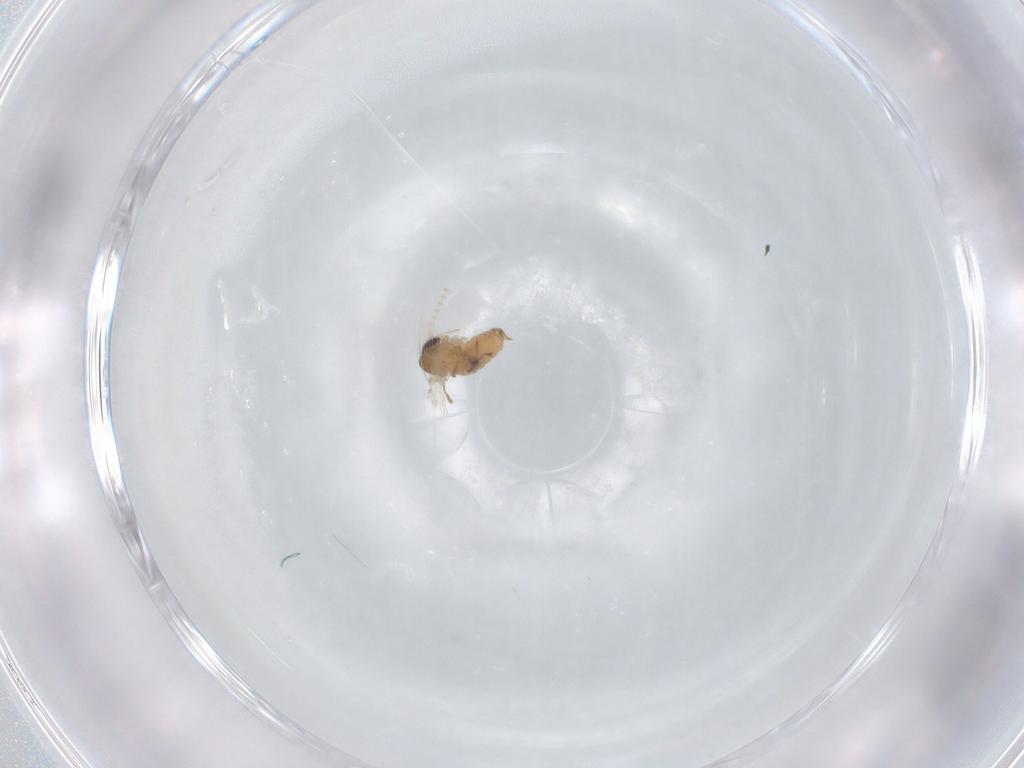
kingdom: Animalia
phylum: Arthropoda
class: Insecta
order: Diptera
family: Psychodidae
